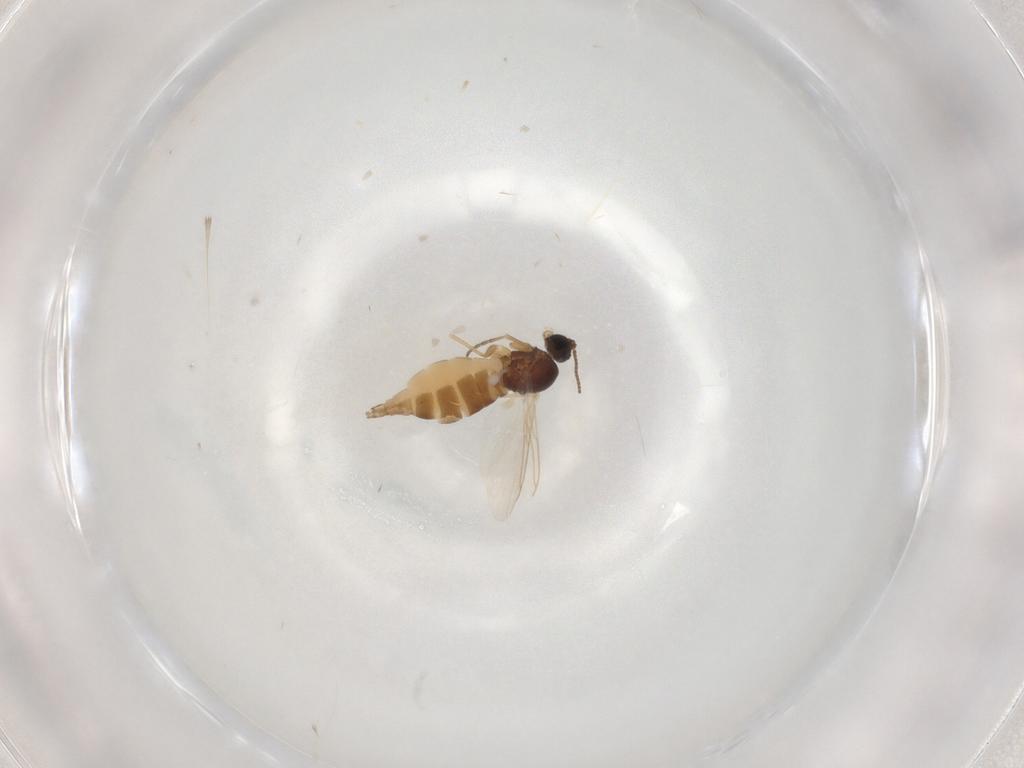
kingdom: Animalia
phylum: Arthropoda
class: Insecta
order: Diptera
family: Sciaridae
